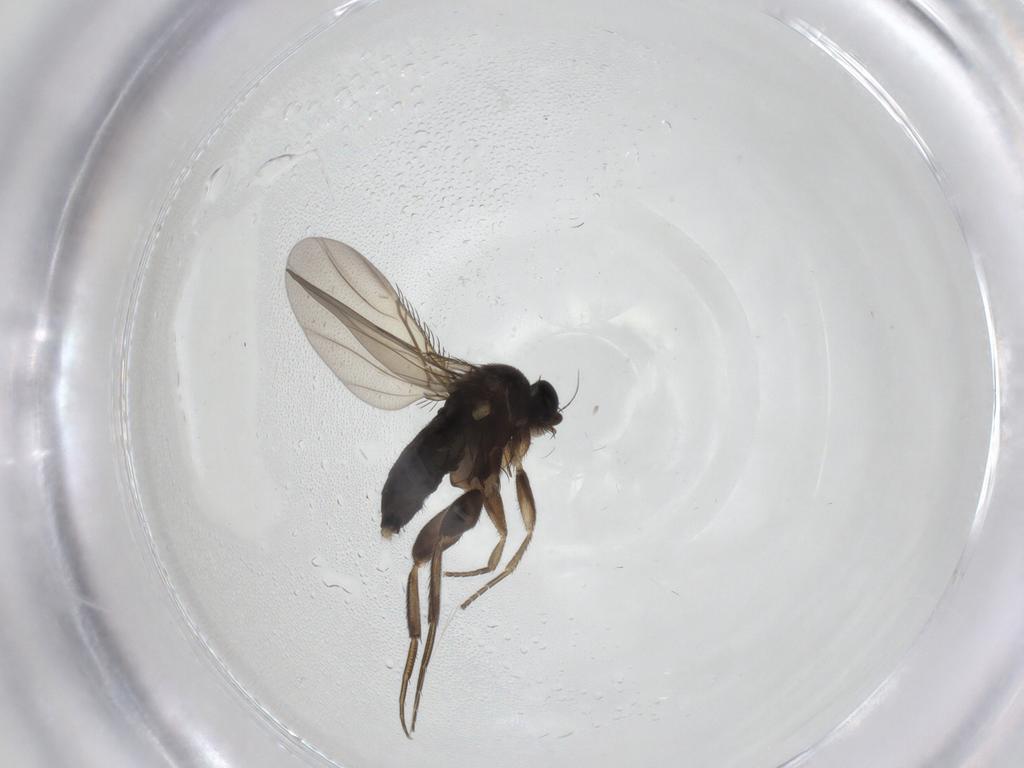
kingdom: Animalia
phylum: Arthropoda
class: Insecta
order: Diptera
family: Phoridae
